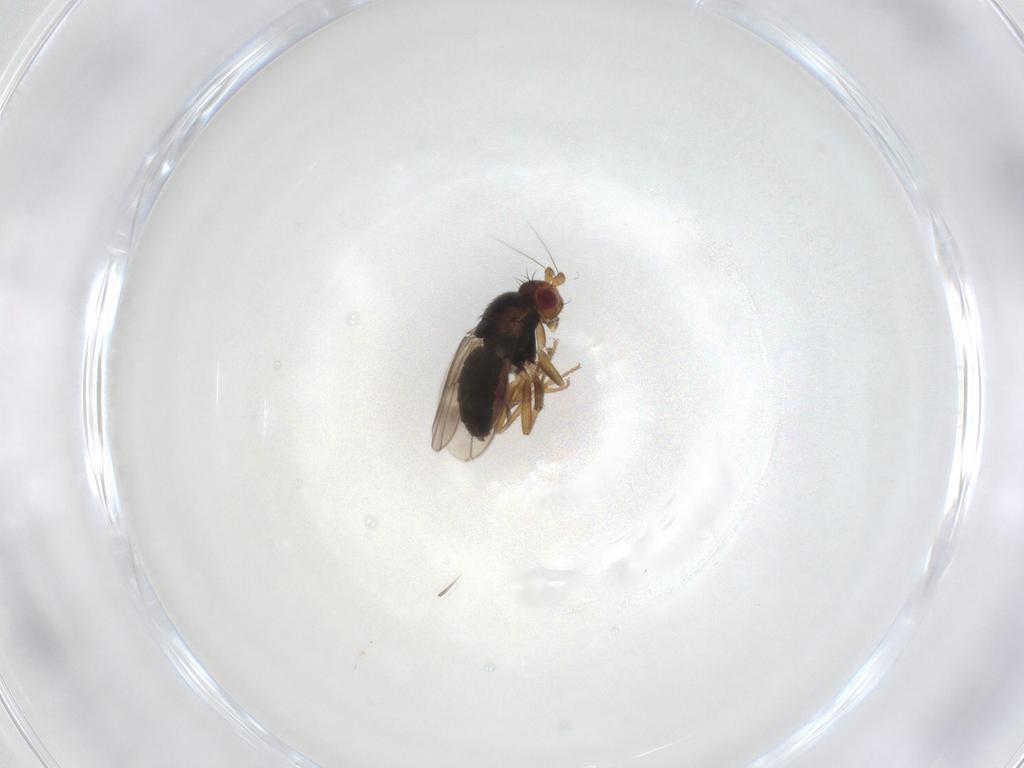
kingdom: Animalia
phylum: Arthropoda
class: Insecta
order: Diptera
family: Sphaeroceridae
